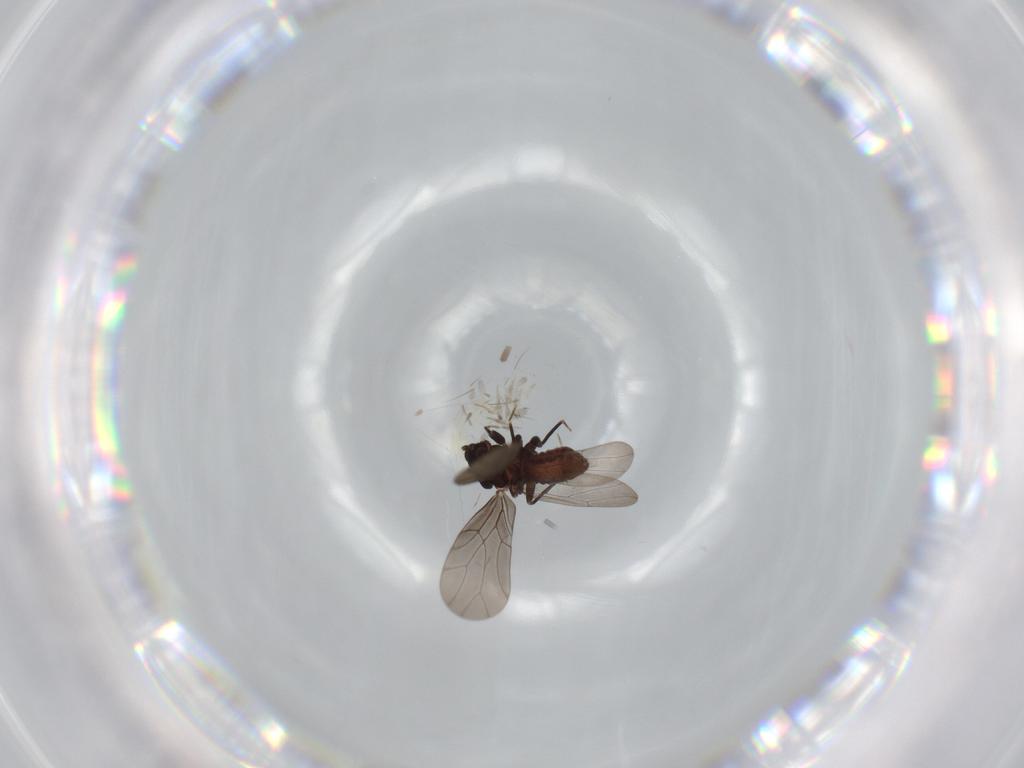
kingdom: Animalia
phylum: Arthropoda
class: Insecta
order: Psocodea
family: Lepidopsocidae
